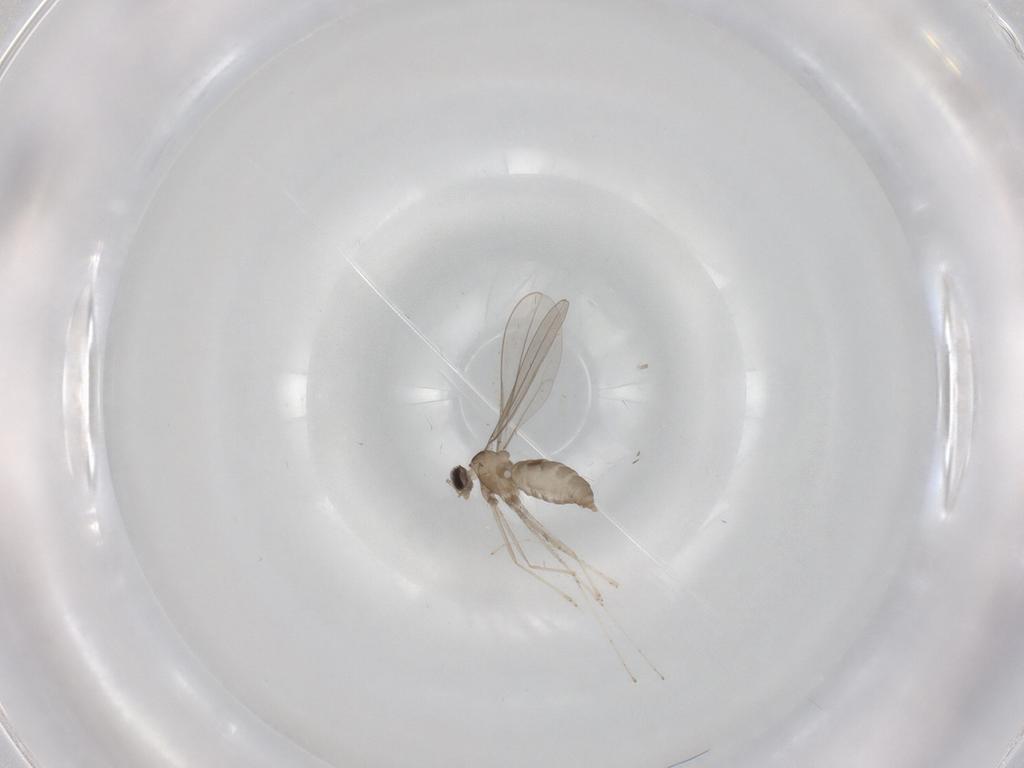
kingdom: Animalia
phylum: Arthropoda
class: Insecta
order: Diptera
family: Cecidomyiidae
